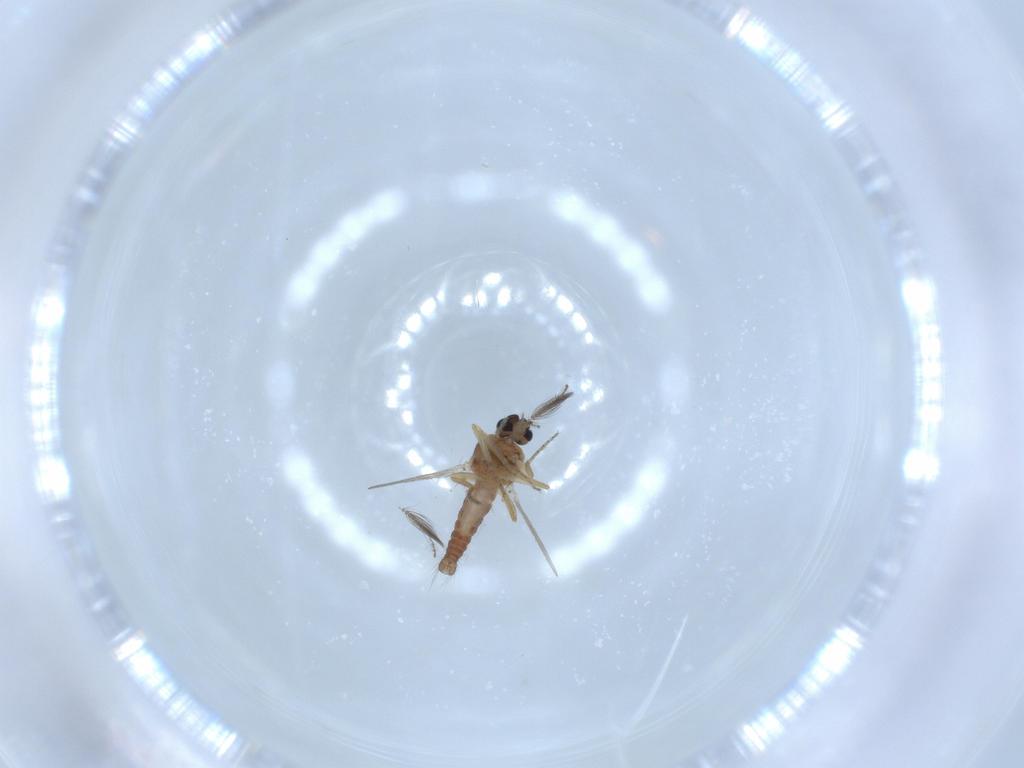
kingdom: Animalia
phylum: Arthropoda
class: Insecta
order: Diptera
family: Ceratopogonidae
